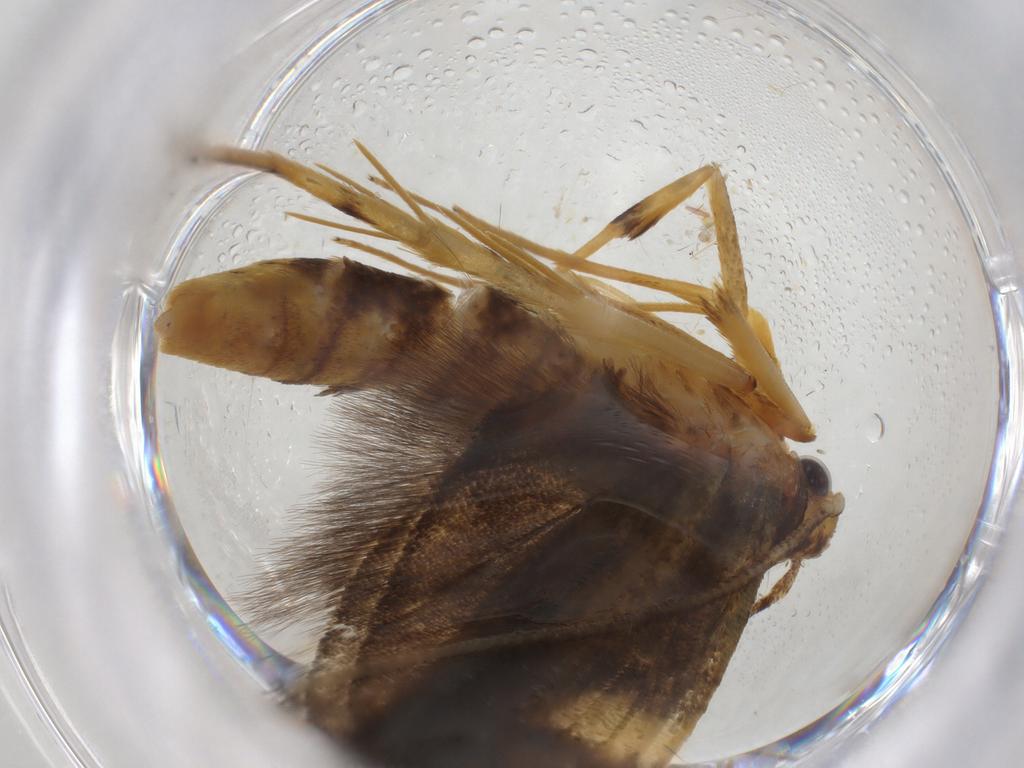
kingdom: Animalia
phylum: Arthropoda
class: Insecta
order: Lepidoptera
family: Lecithoceridae
